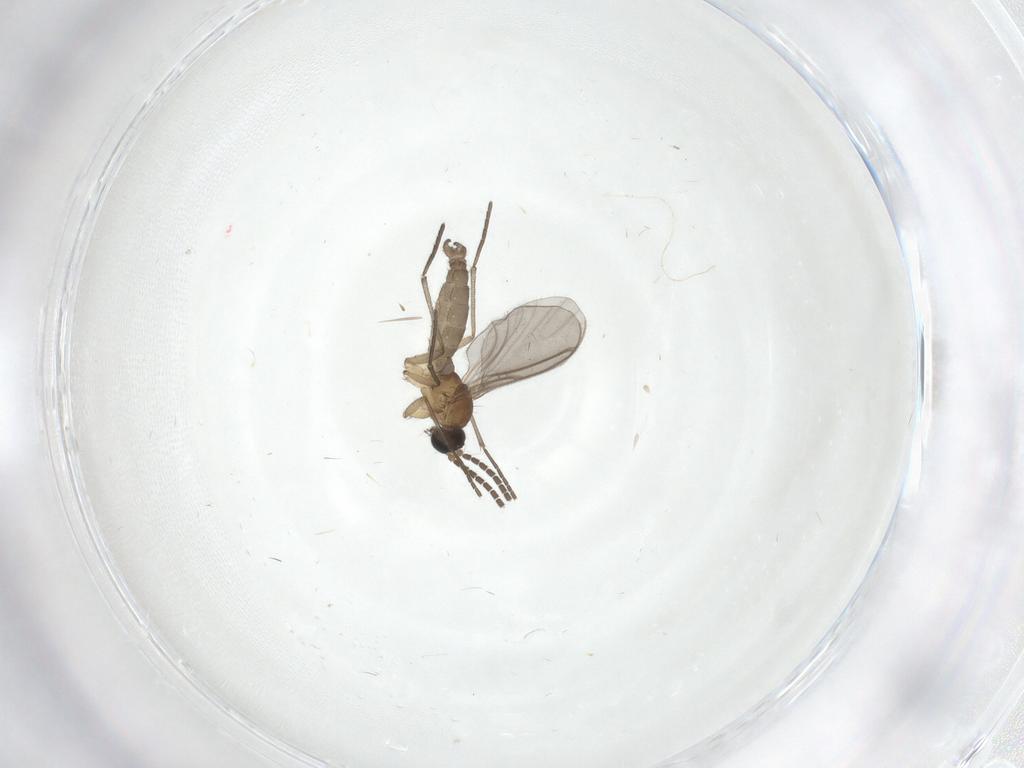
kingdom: Animalia
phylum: Arthropoda
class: Insecta
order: Diptera
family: Sciaridae
